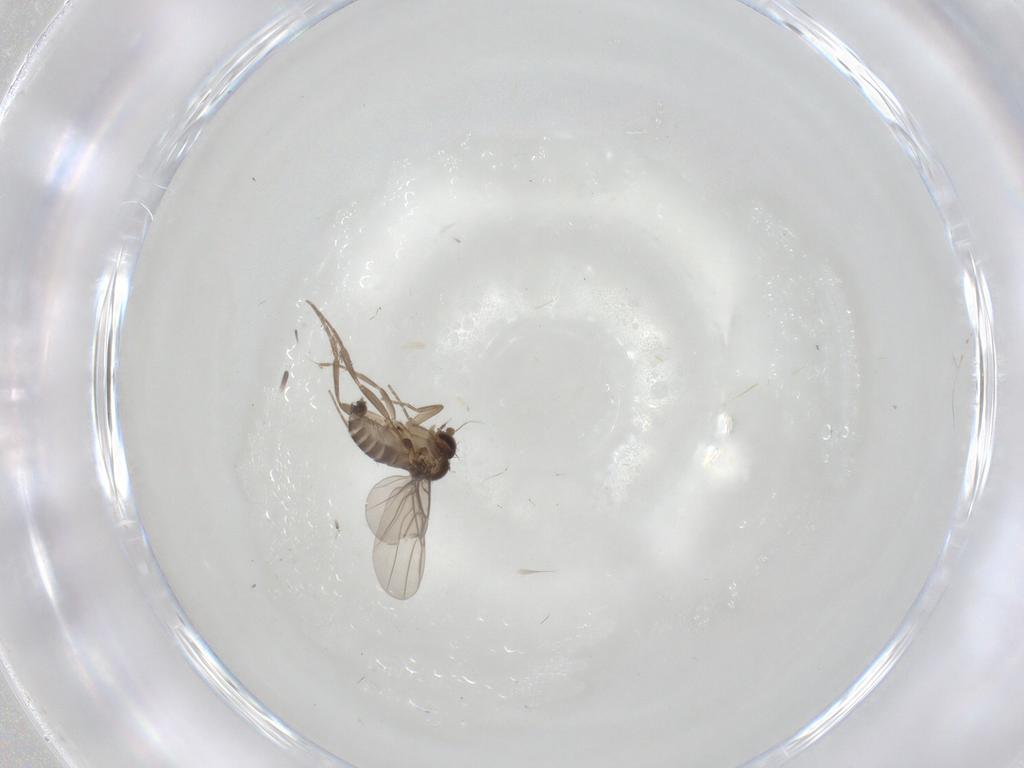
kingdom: Animalia
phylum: Arthropoda
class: Insecta
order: Diptera
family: Phoridae
